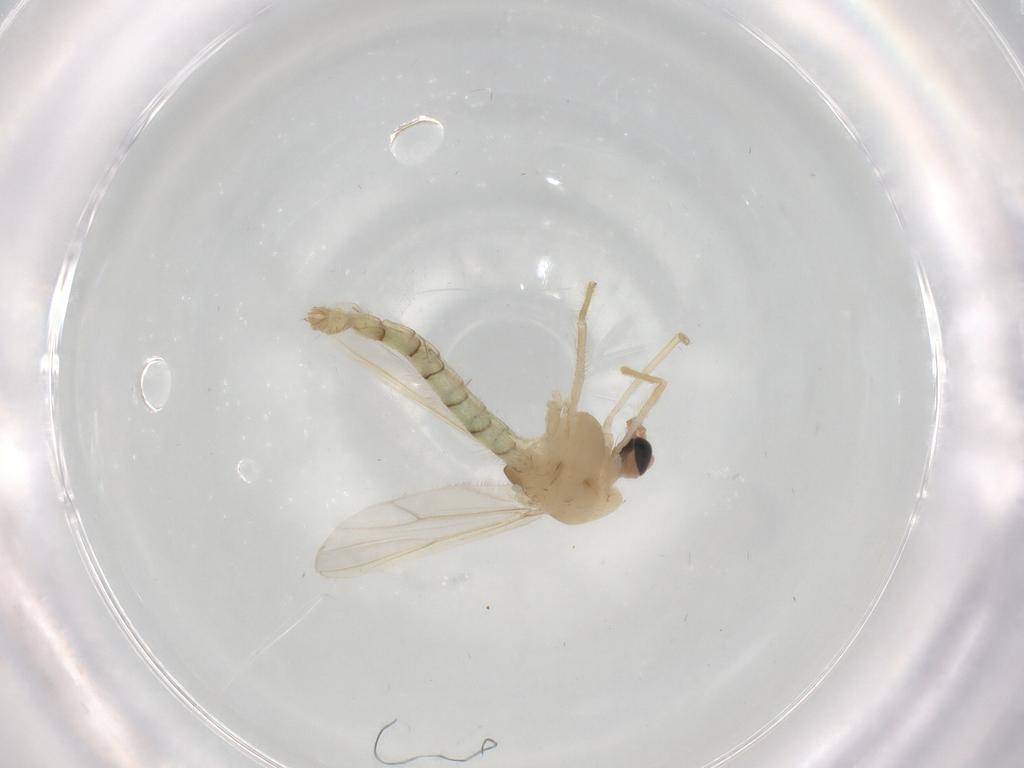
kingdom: Animalia
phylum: Arthropoda
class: Insecta
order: Diptera
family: Chironomidae
